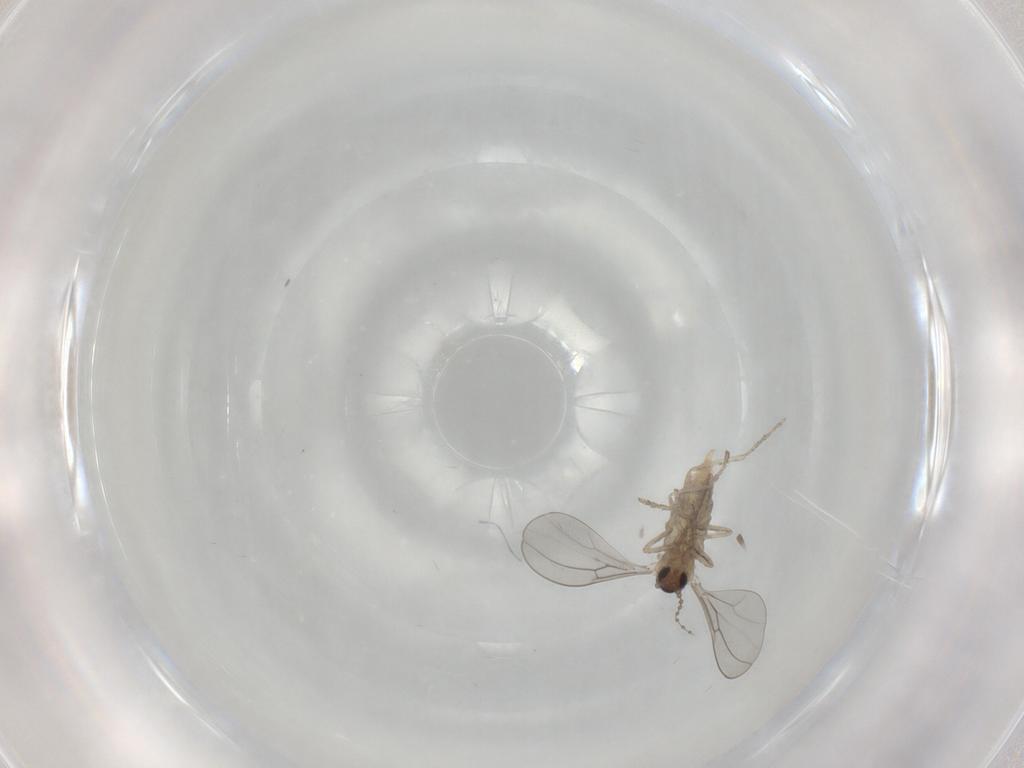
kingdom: Animalia
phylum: Arthropoda
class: Insecta
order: Diptera
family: Cecidomyiidae
